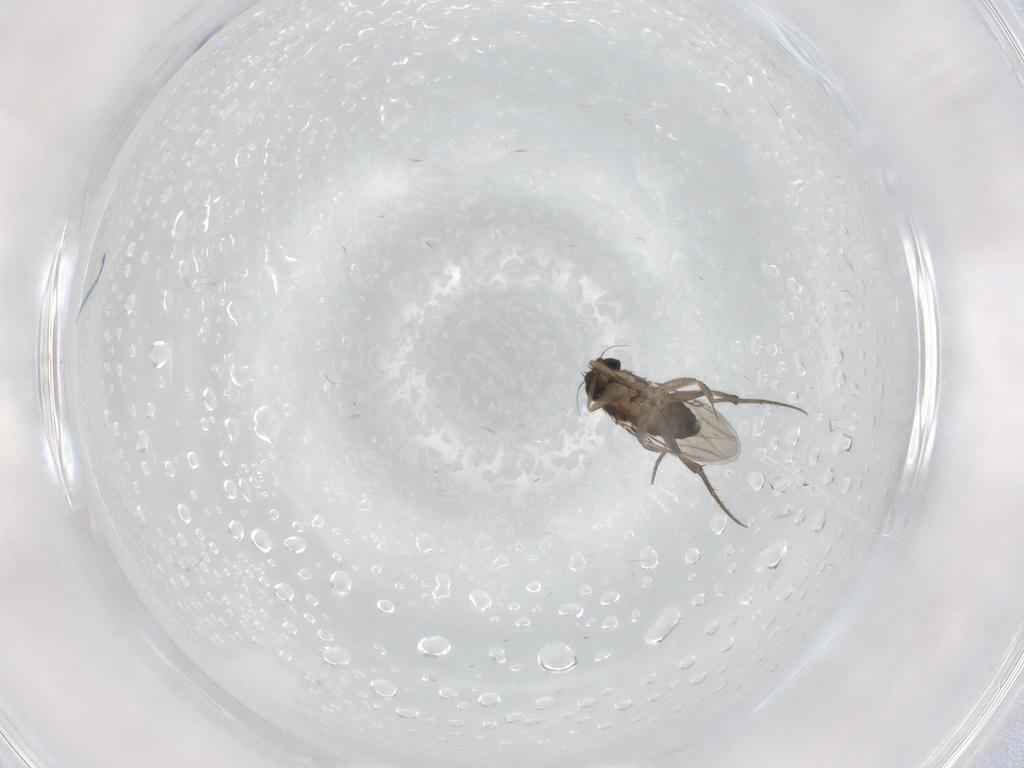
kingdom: Animalia
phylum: Arthropoda
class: Insecta
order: Diptera
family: Phoridae
